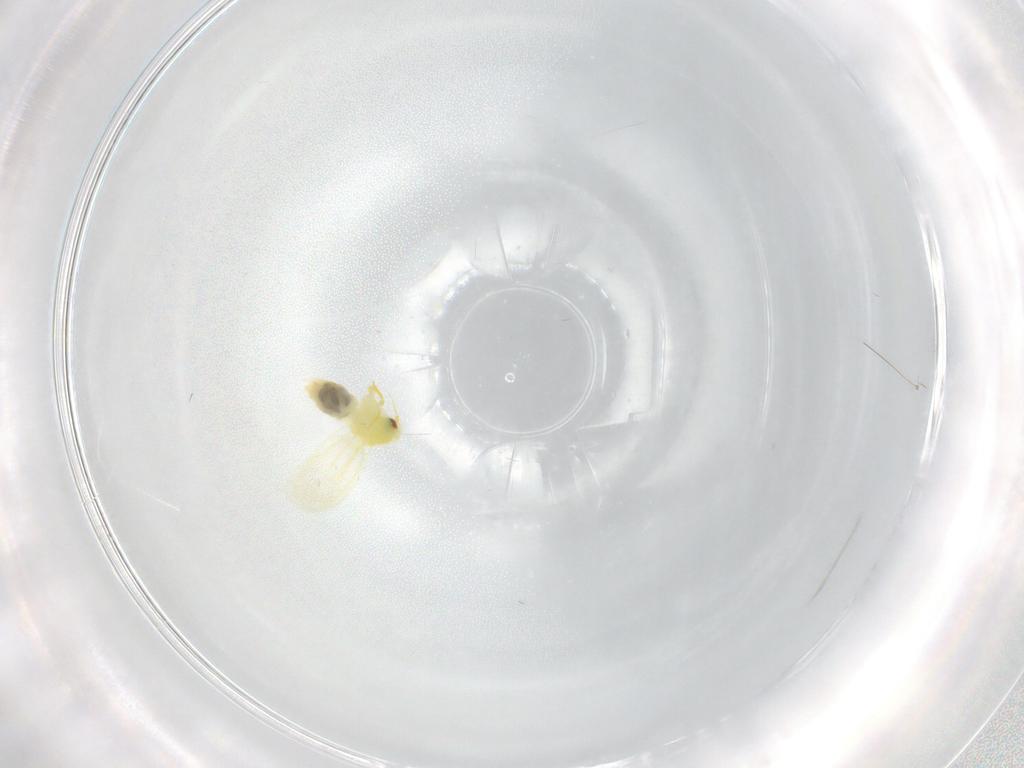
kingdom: Animalia
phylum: Arthropoda
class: Insecta
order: Hemiptera
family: Aleyrodidae
